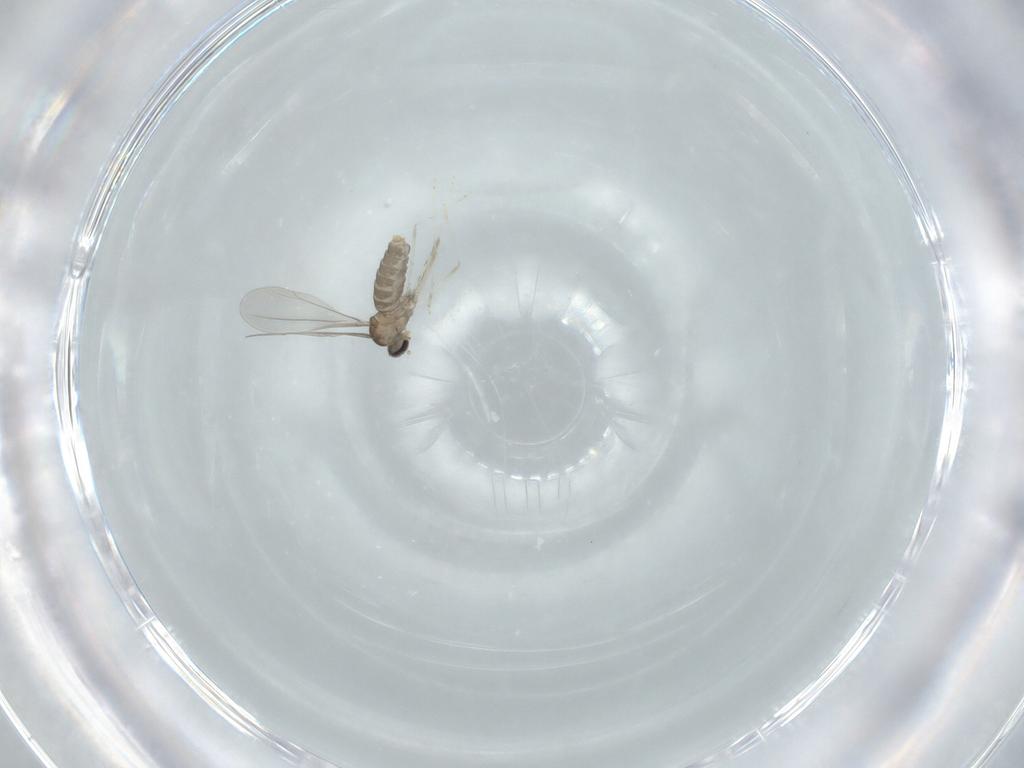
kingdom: Animalia
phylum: Arthropoda
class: Insecta
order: Diptera
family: Cecidomyiidae
